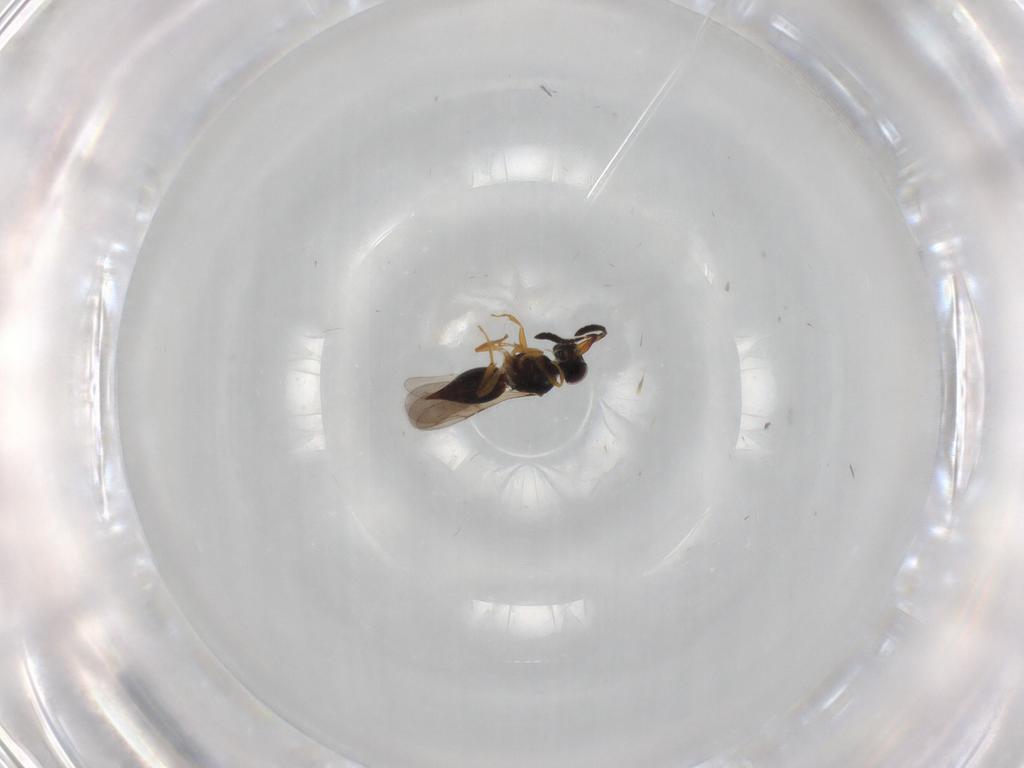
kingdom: Animalia
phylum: Arthropoda
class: Insecta
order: Hymenoptera
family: Ceraphronidae
